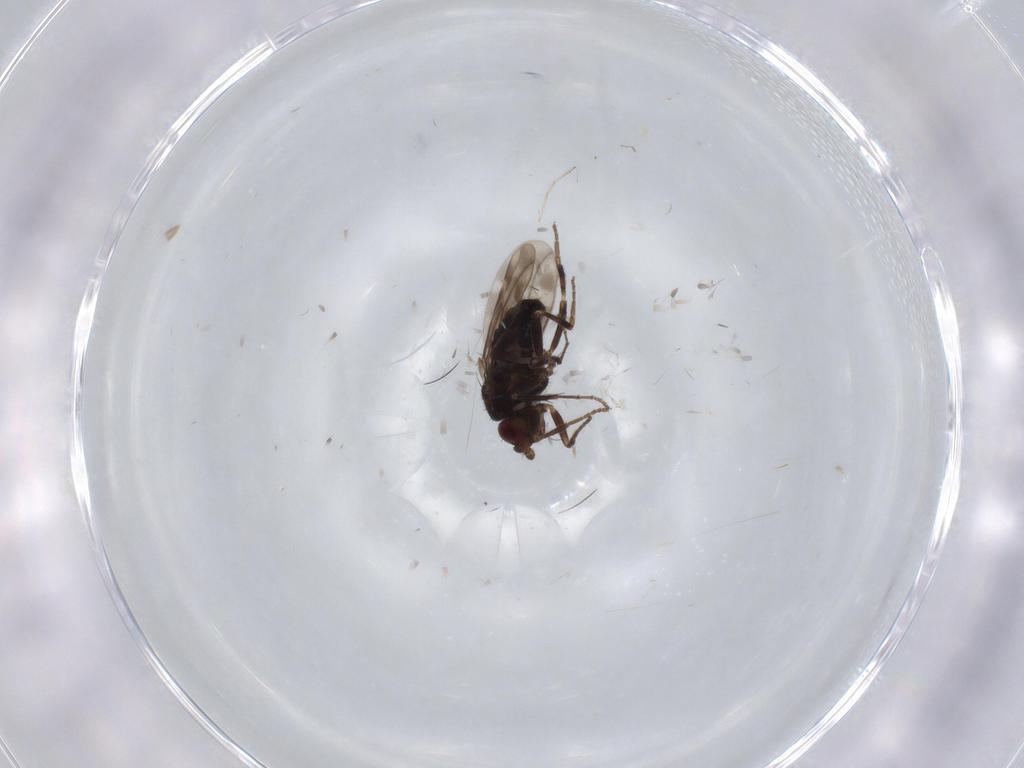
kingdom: Animalia
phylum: Arthropoda
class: Insecta
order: Diptera
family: Sphaeroceridae
